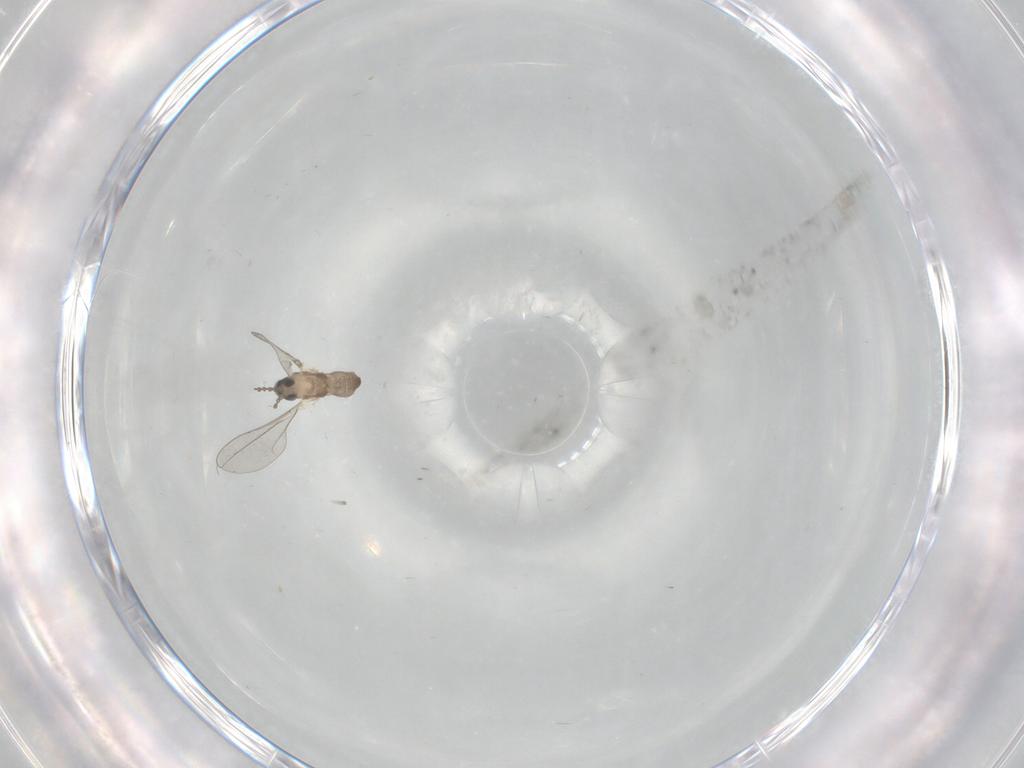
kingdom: Animalia
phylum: Arthropoda
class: Insecta
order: Diptera
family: Cecidomyiidae
